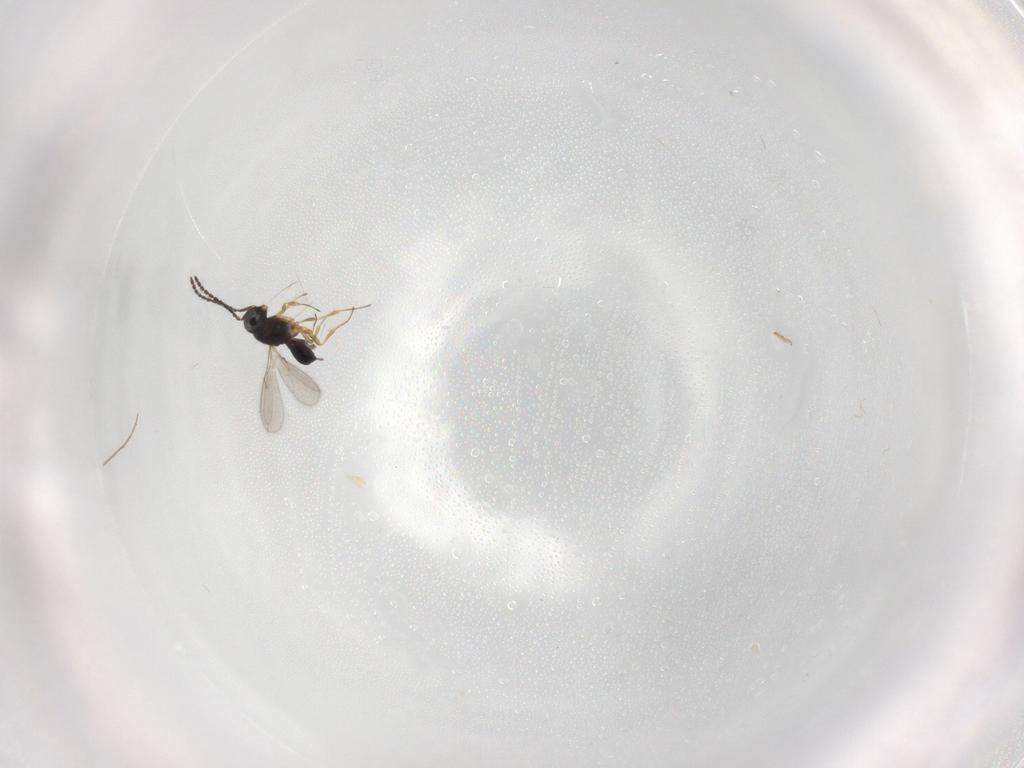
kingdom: Animalia
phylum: Arthropoda
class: Insecta
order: Hymenoptera
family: Scelionidae
